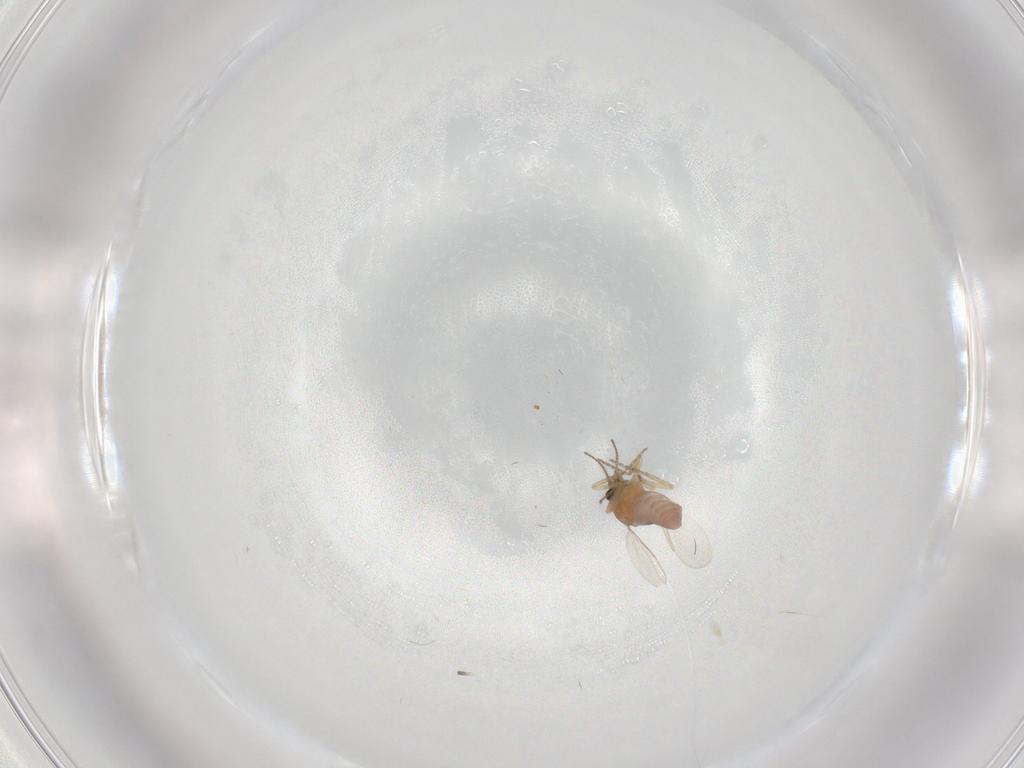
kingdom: Animalia
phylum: Arthropoda
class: Insecta
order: Diptera
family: Ceratopogonidae
